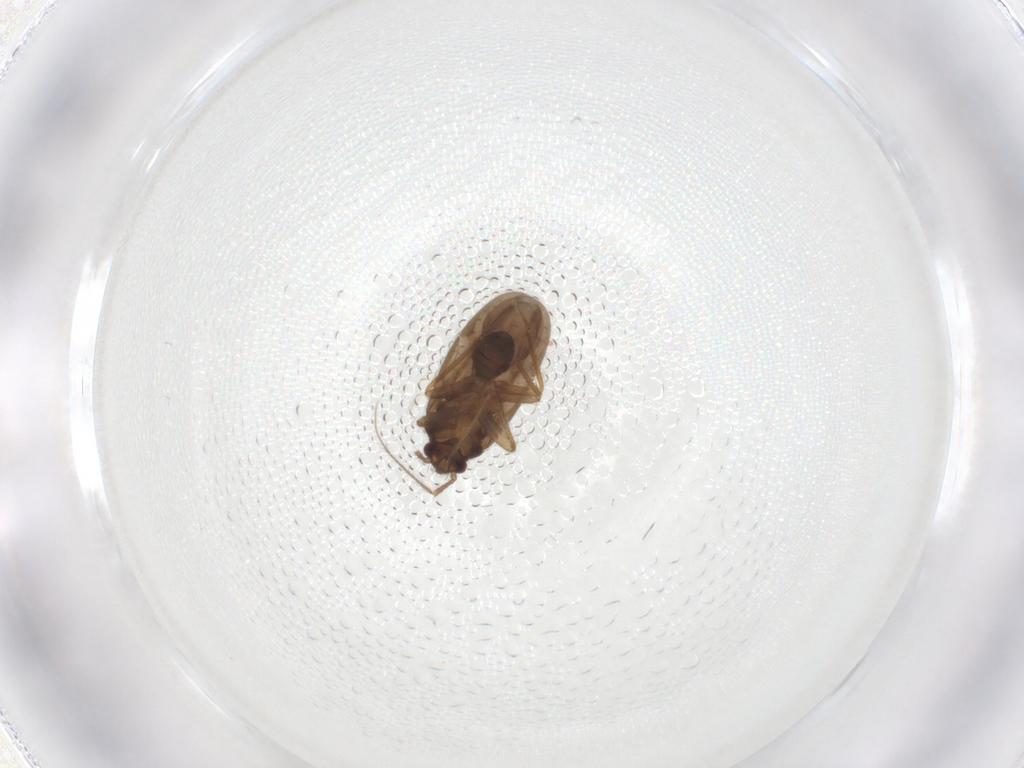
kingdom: Animalia
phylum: Arthropoda
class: Insecta
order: Hemiptera
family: Ceratocombidae
